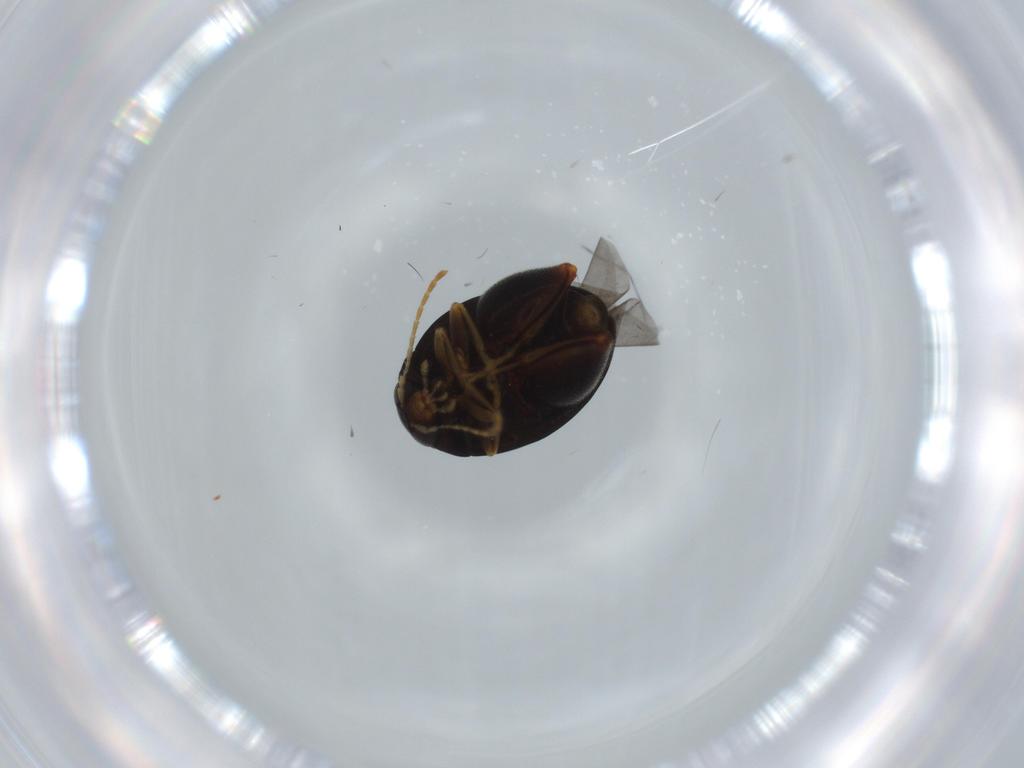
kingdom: Animalia
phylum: Arthropoda
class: Insecta
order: Coleoptera
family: Chrysomelidae
